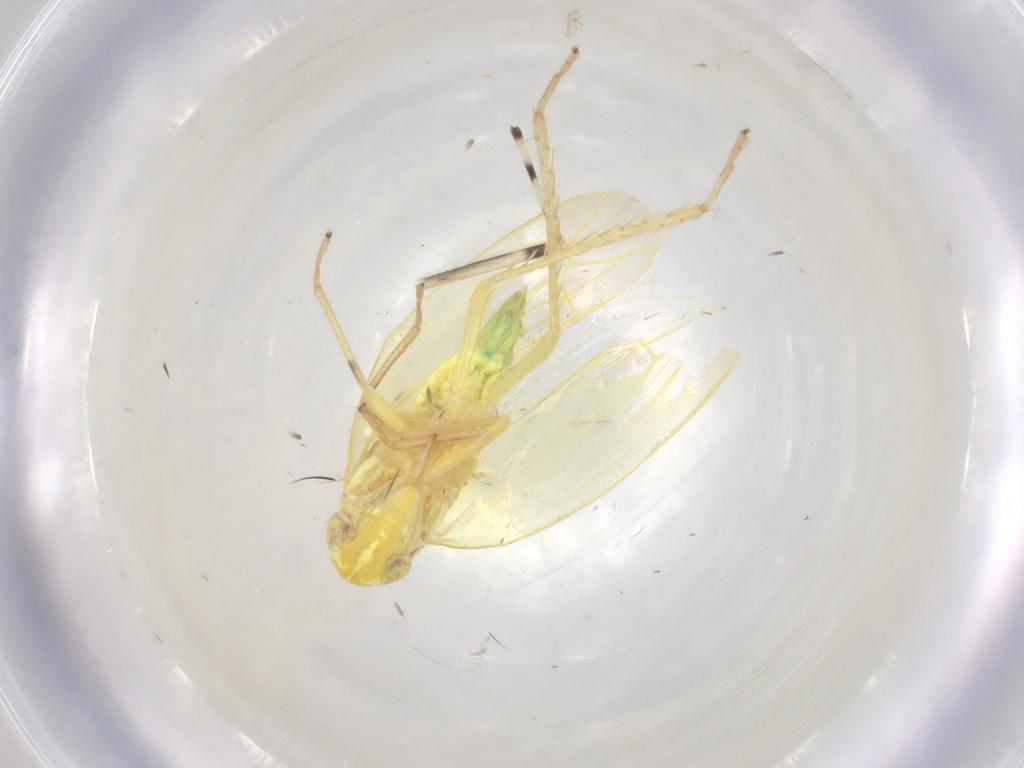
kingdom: Animalia
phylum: Arthropoda
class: Insecta
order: Hemiptera
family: Cicadellidae
